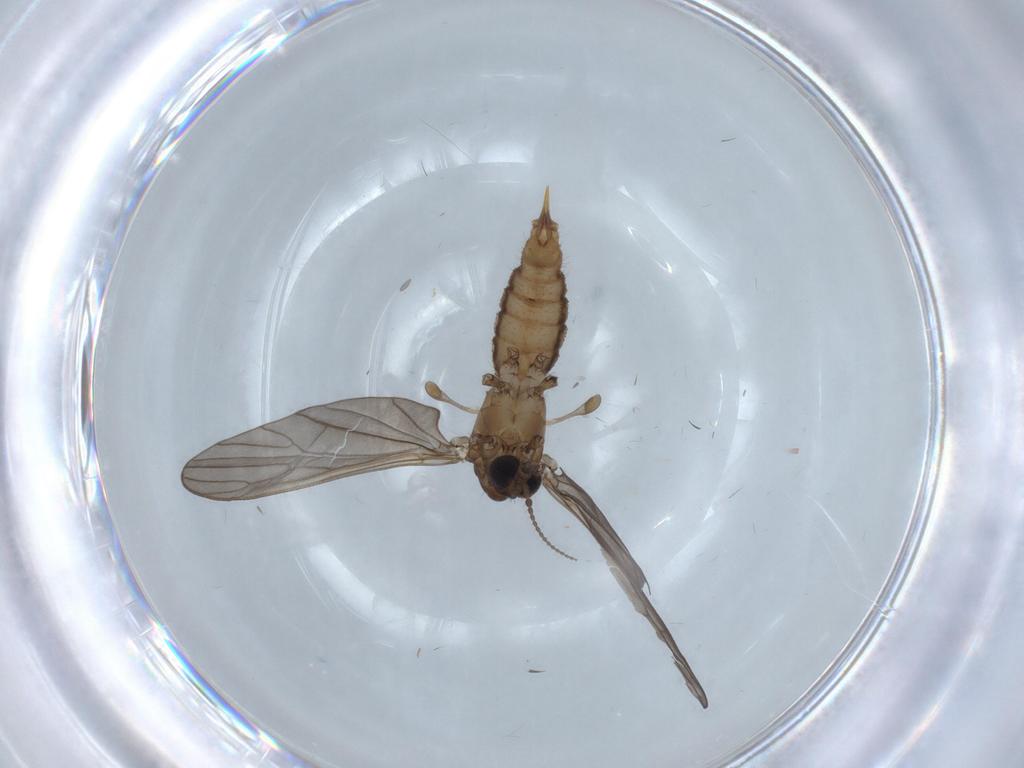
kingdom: Animalia
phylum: Arthropoda
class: Insecta
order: Diptera
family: Limoniidae
